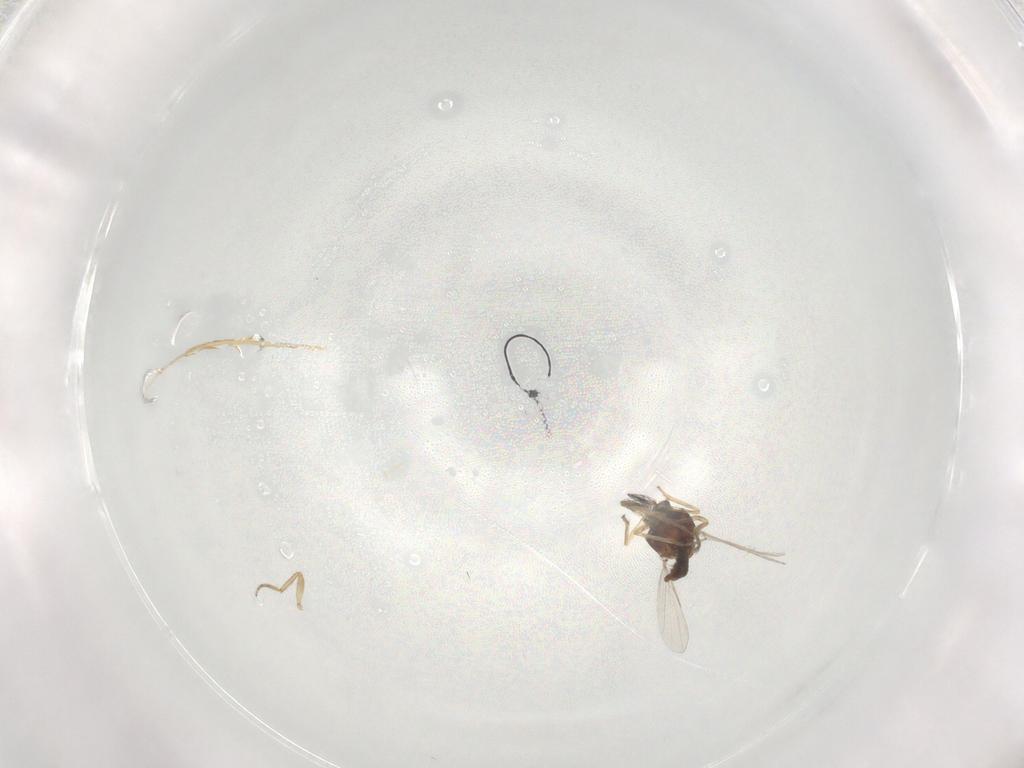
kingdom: Animalia
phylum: Arthropoda
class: Insecta
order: Diptera
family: Ceratopogonidae
